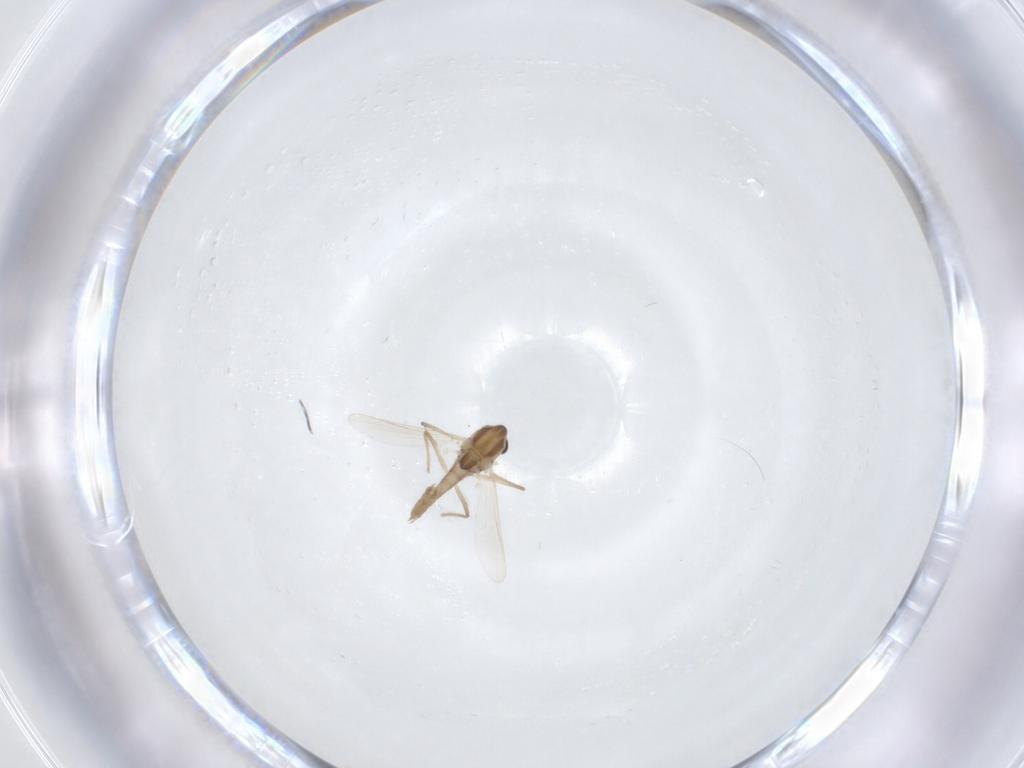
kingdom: Animalia
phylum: Arthropoda
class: Insecta
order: Diptera
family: Chironomidae
